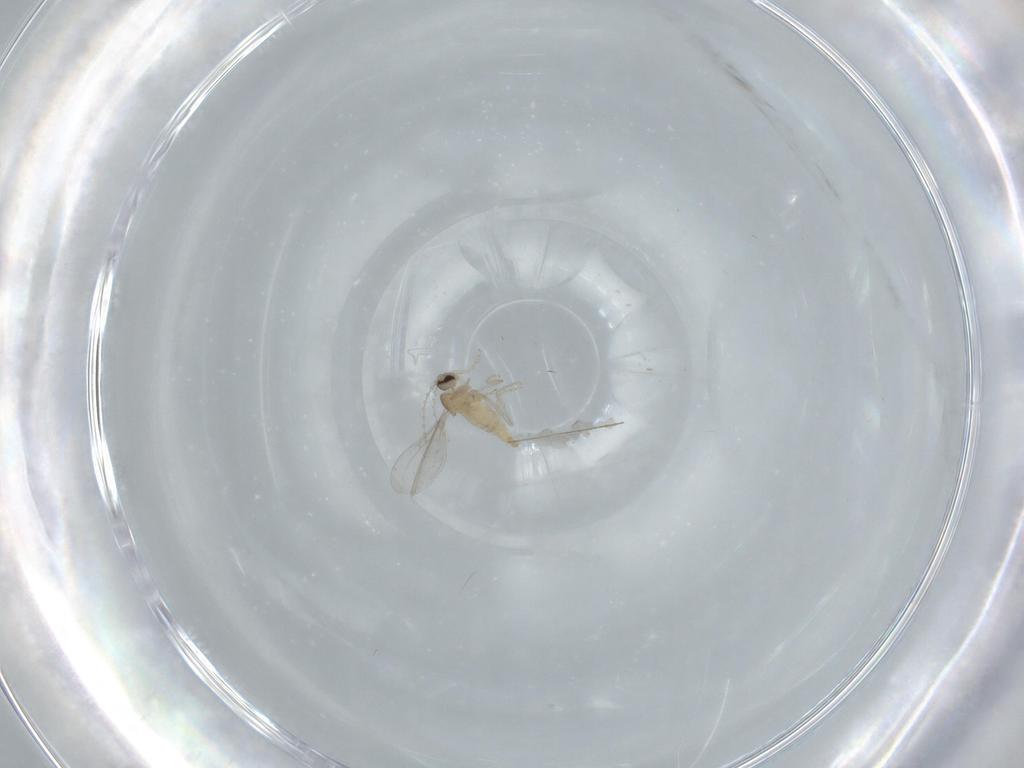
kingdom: Animalia
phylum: Arthropoda
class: Insecta
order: Diptera
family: Cecidomyiidae
